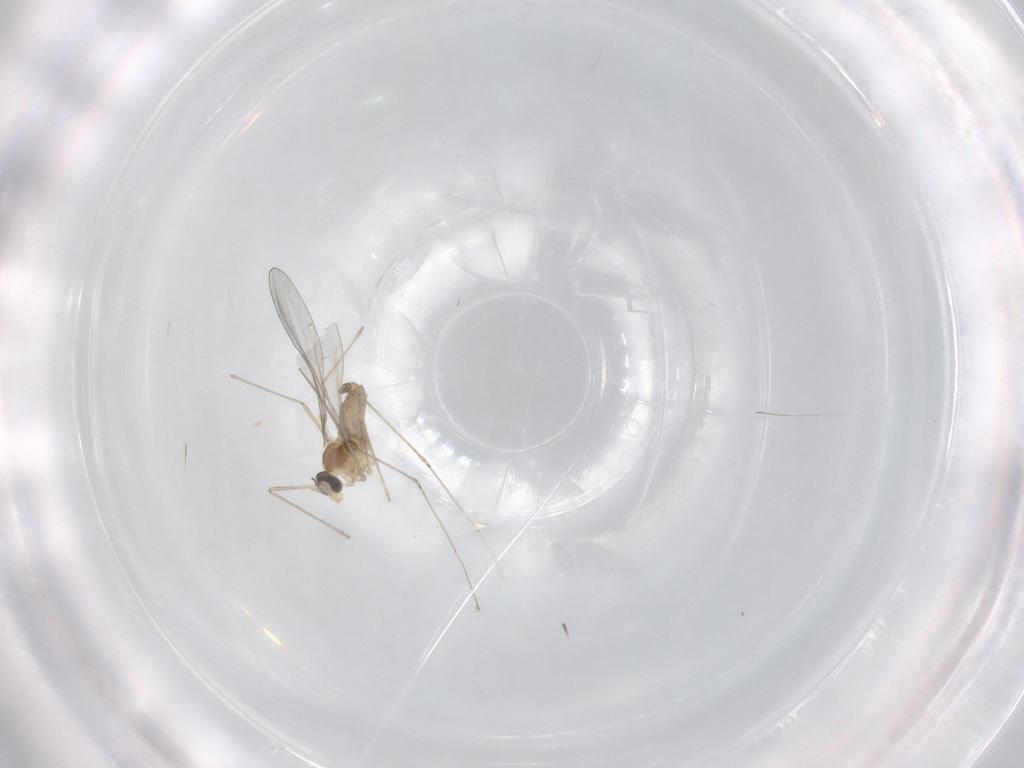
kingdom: Animalia
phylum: Arthropoda
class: Insecta
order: Diptera
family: Cecidomyiidae
